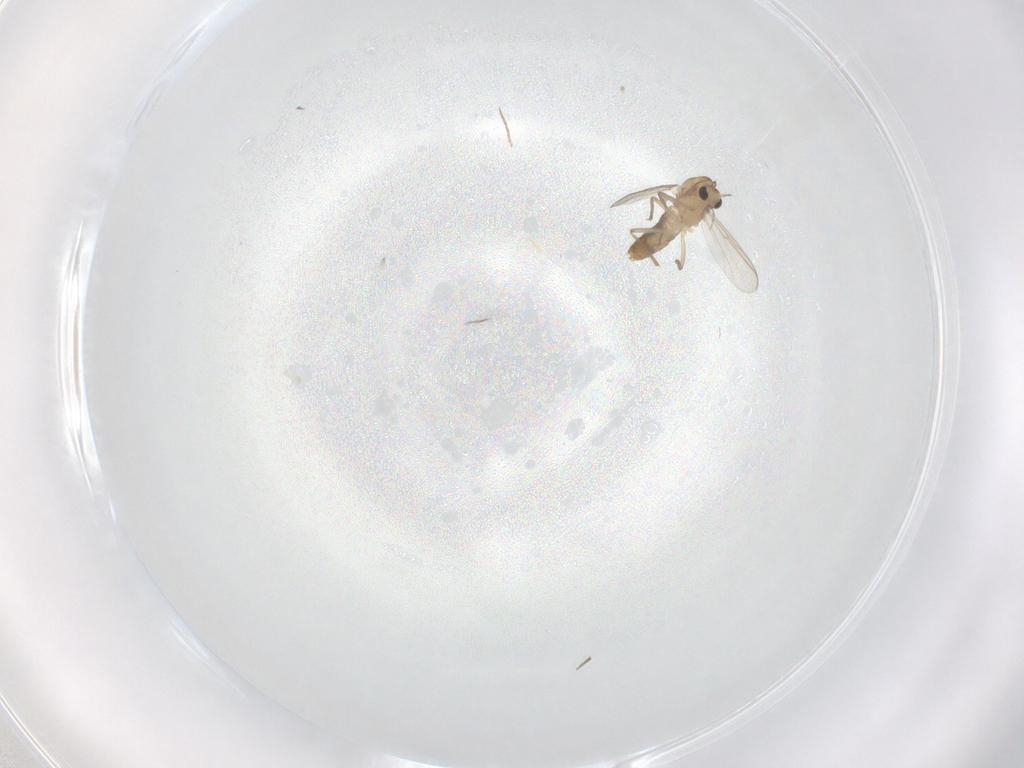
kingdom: Animalia
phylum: Arthropoda
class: Insecta
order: Diptera
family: Chironomidae
